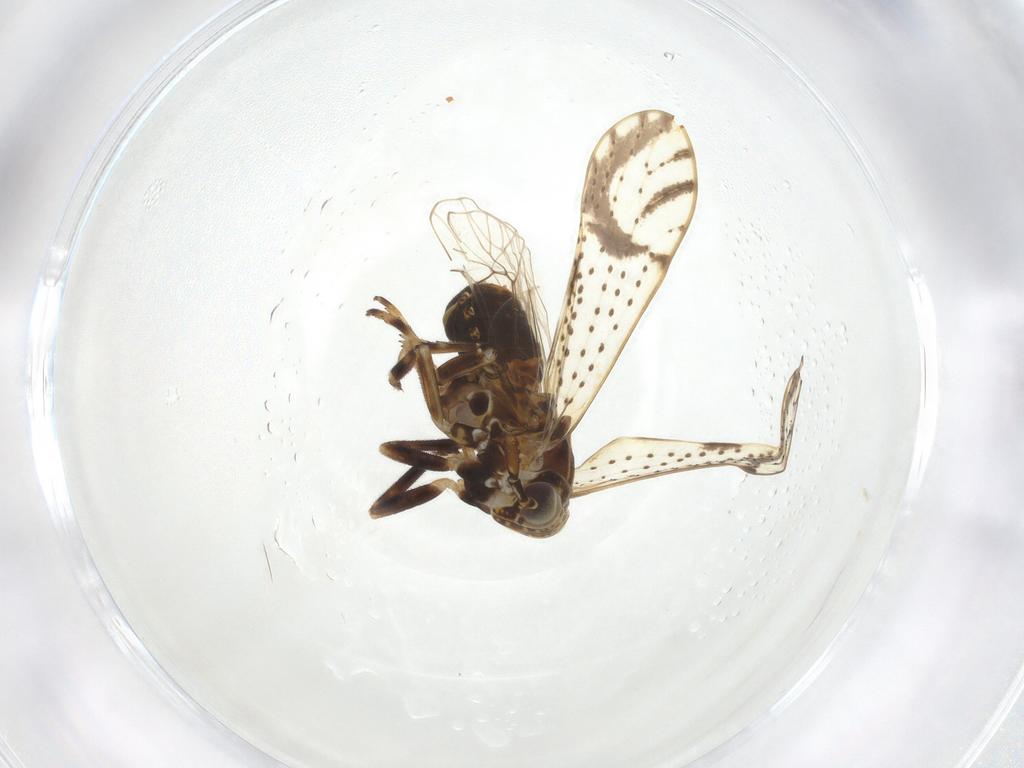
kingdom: Animalia
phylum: Arthropoda
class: Insecta
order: Hemiptera
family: Delphacidae
